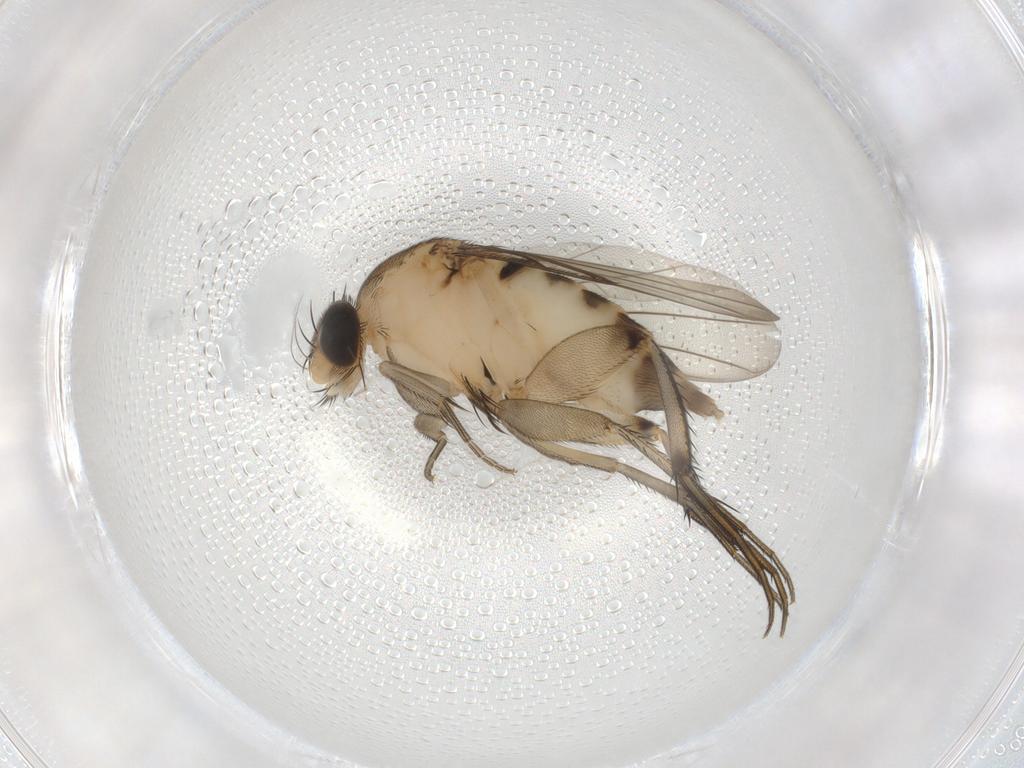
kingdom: Animalia
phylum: Arthropoda
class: Insecta
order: Diptera
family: Phoridae
